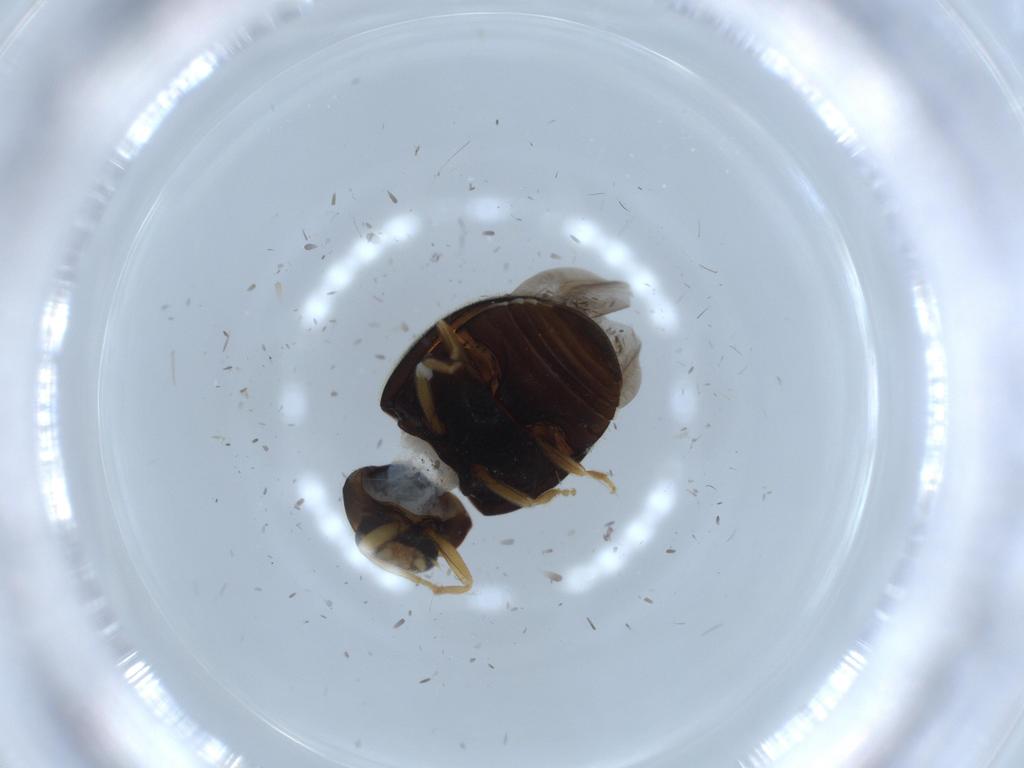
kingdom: Animalia
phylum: Arthropoda
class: Insecta
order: Coleoptera
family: Coccinellidae
